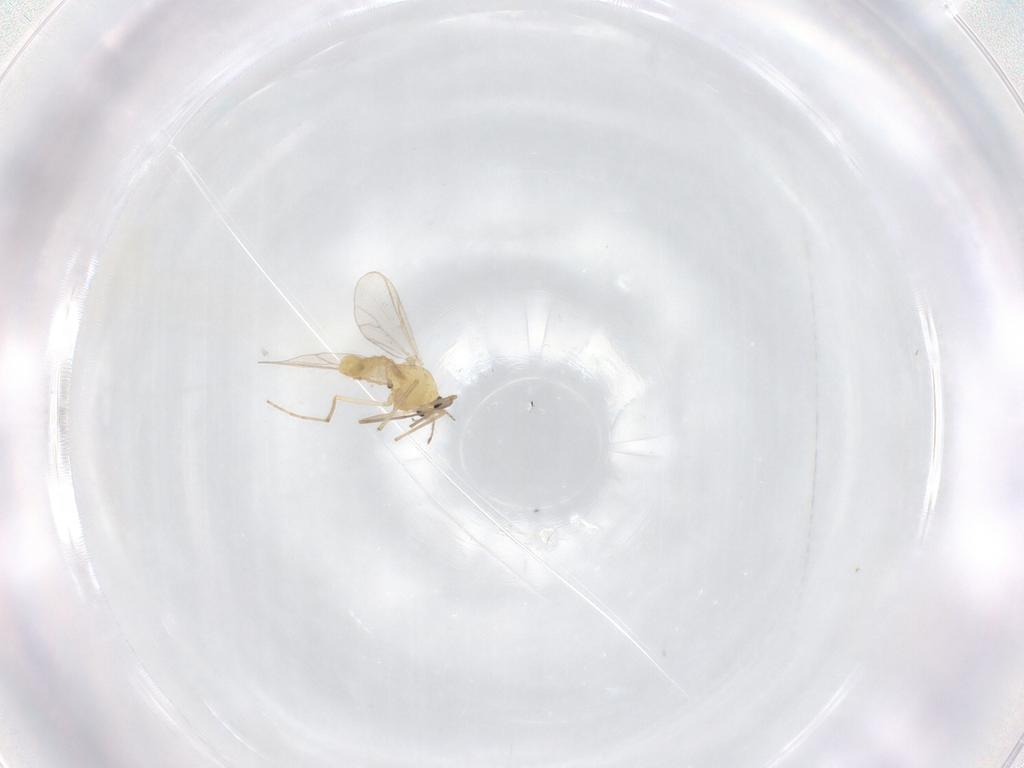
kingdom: Animalia
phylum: Arthropoda
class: Insecta
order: Diptera
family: Chironomidae
